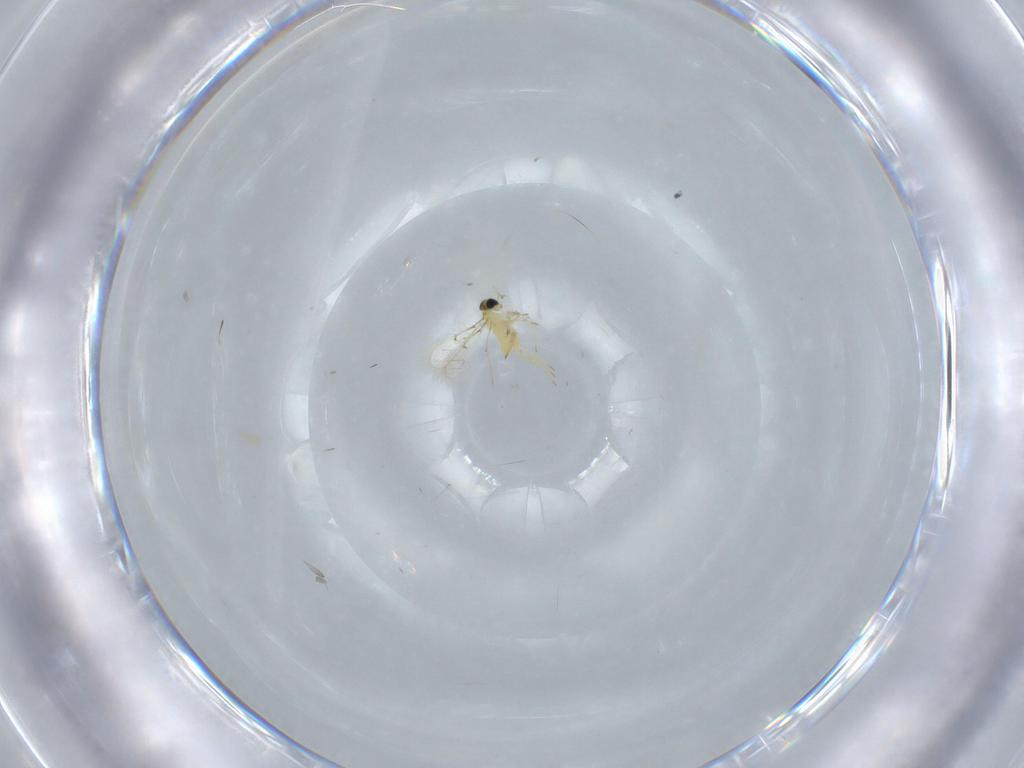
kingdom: Animalia
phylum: Arthropoda
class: Insecta
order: Hymenoptera
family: Trichogrammatidae
